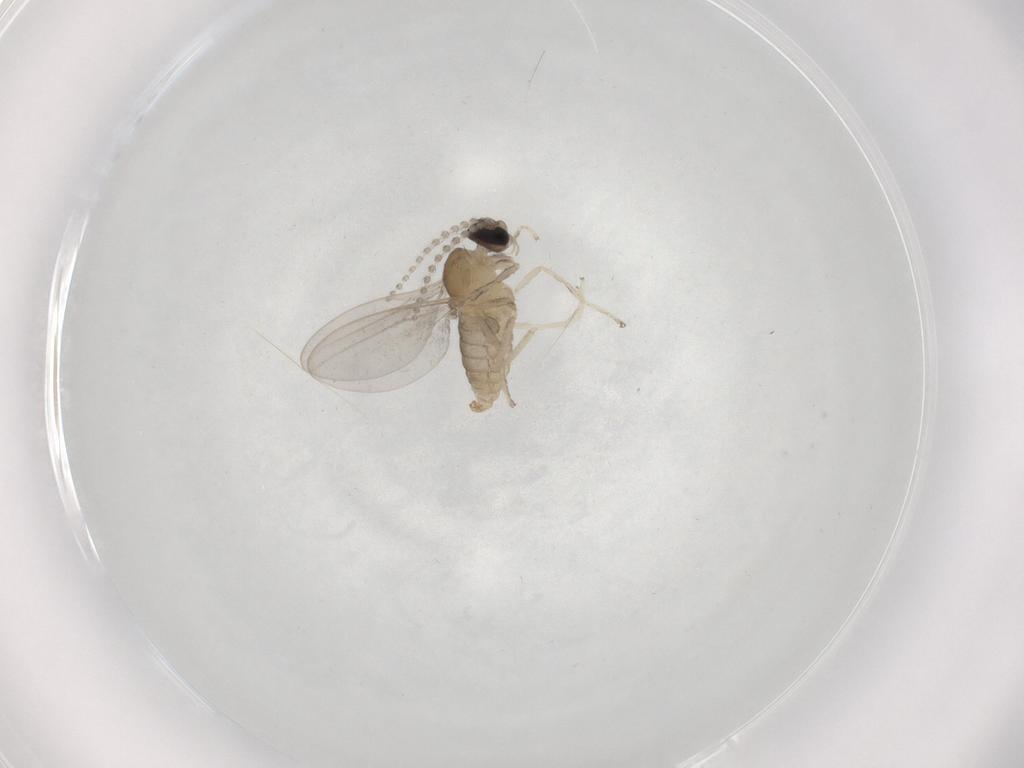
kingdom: Animalia
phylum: Arthropoda
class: Insecta
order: Diptera
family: Cecidomyiidae
